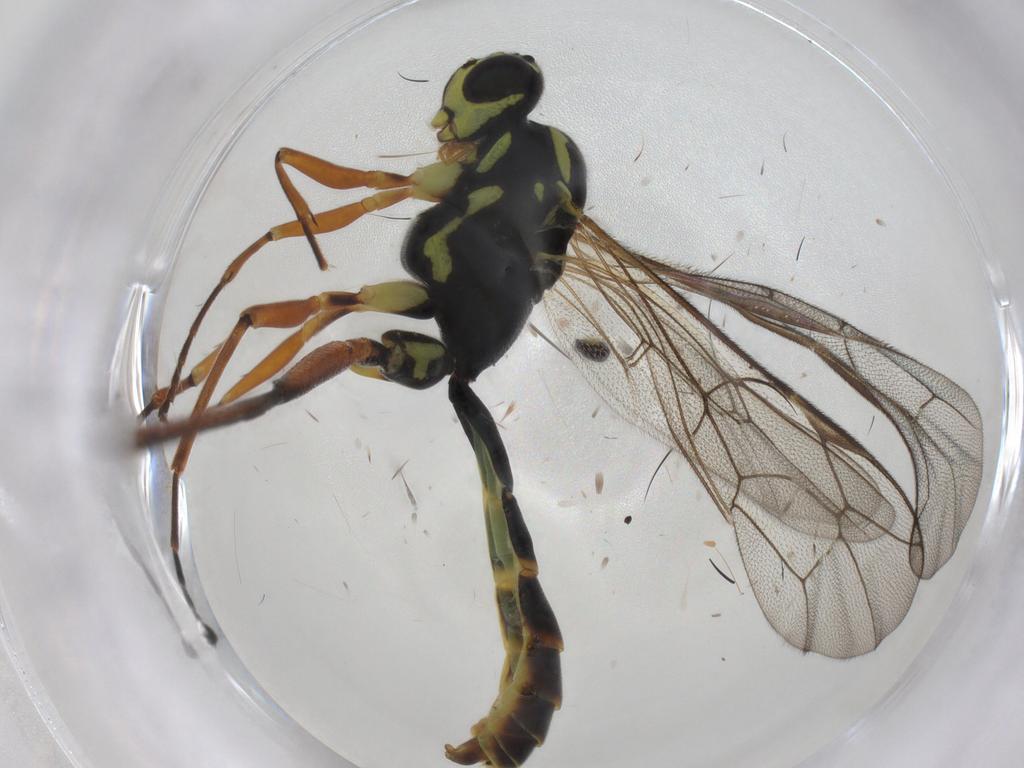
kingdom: Animalia
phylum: Arthropoda
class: Insecta
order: Hymenoptera
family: Ichneumonidae
